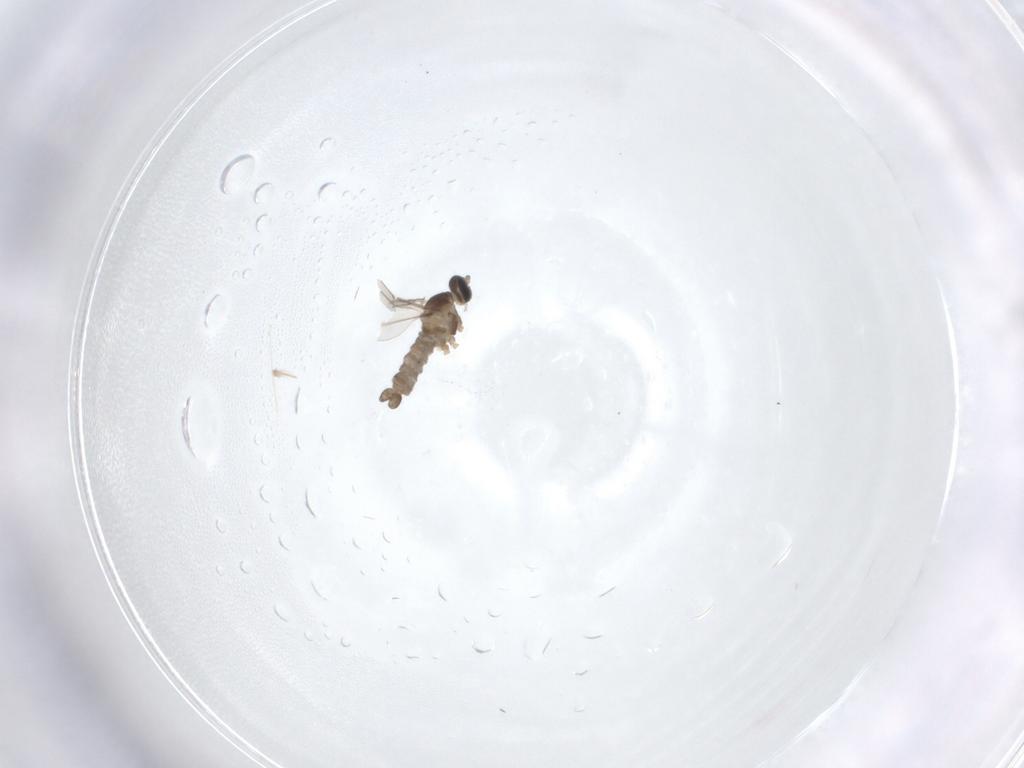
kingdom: Animalia
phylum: Arthropoda
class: Insecta
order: Diptera
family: Cecidomyiidae
